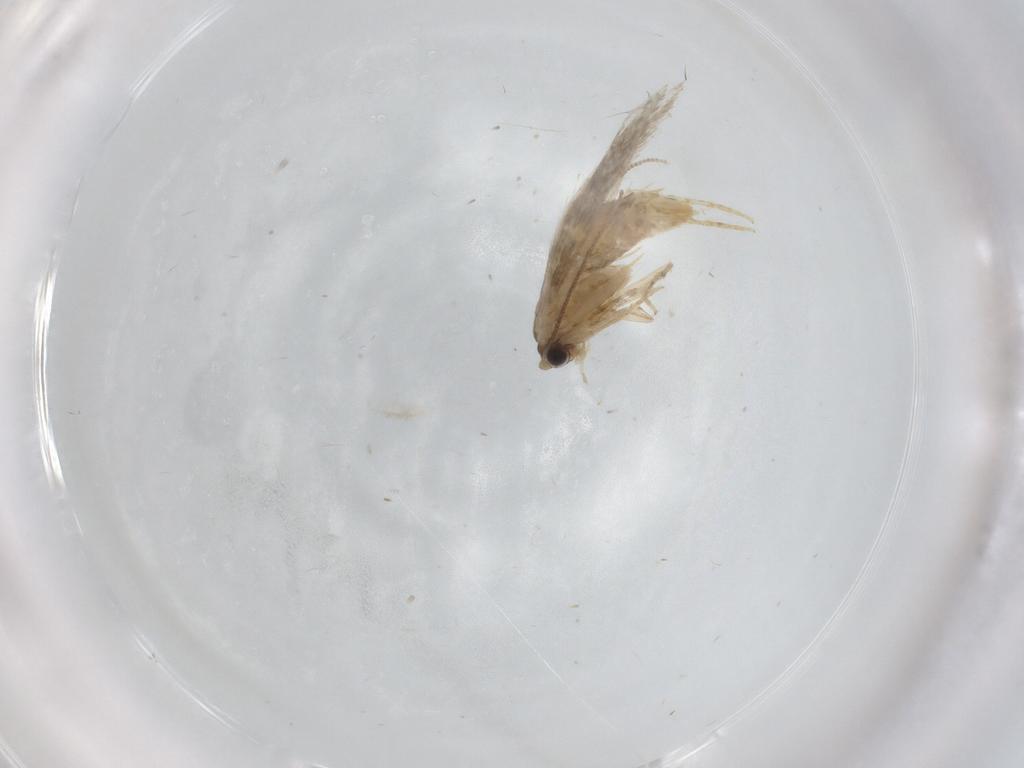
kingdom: Animalia
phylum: Arthropoda
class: Insecta
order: Lepidoptera
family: Tineidae
